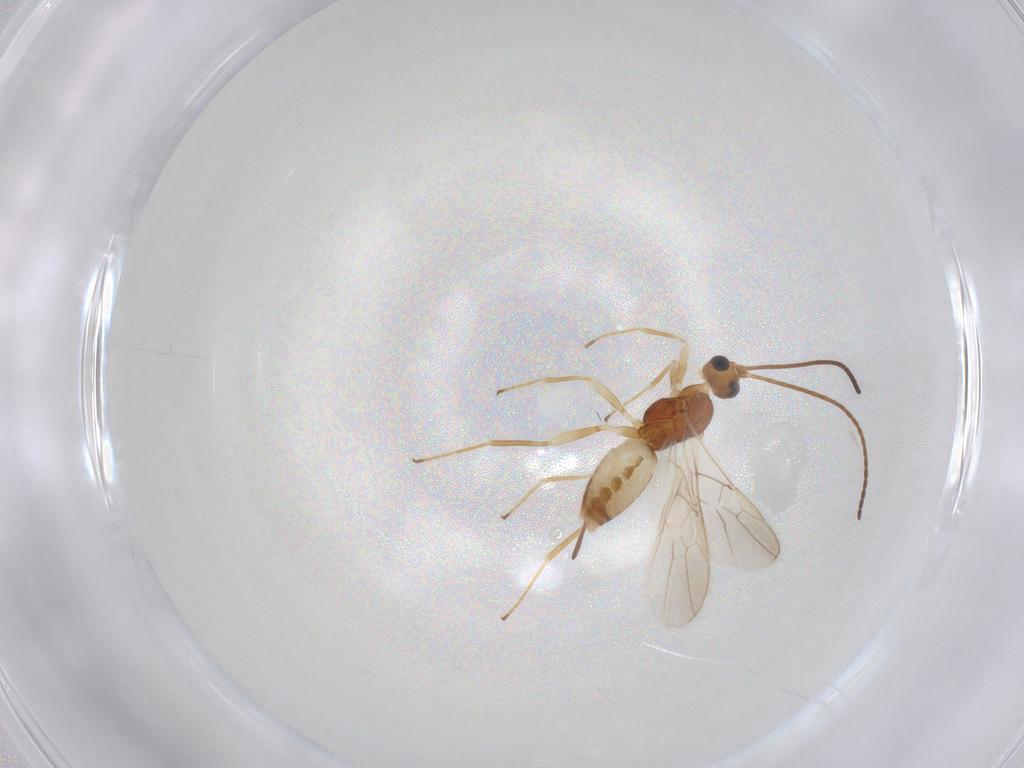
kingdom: Animalia
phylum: Arthropoda
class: Insecta
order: Hymenoptera
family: Braconidae
